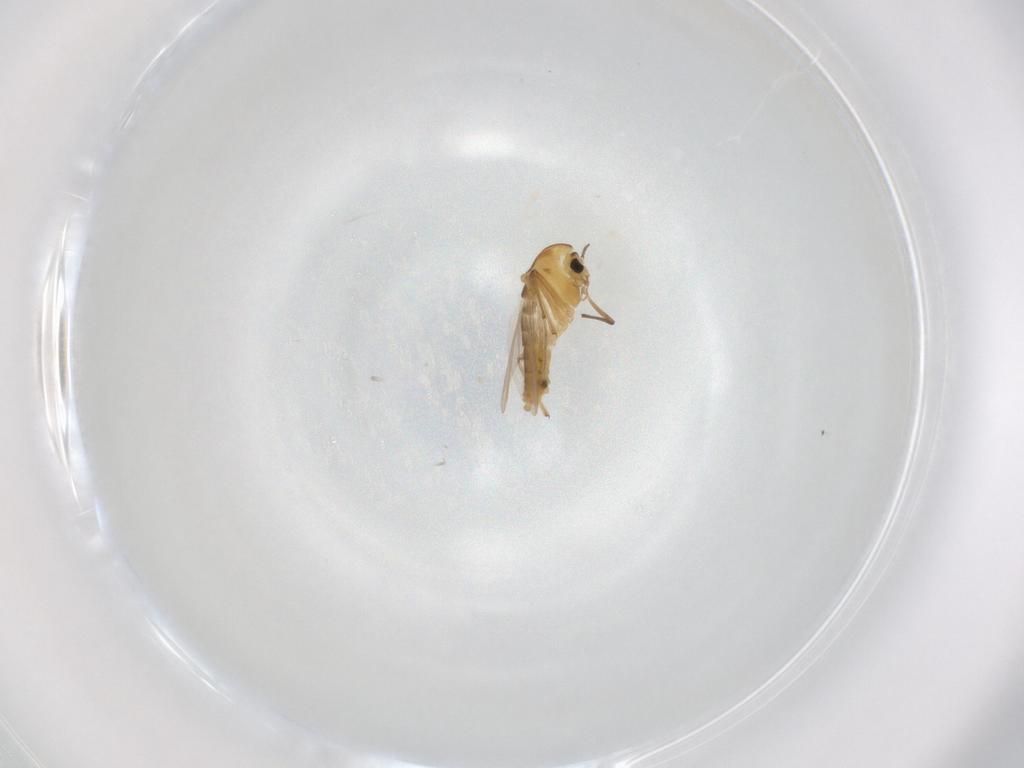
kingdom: Animalia
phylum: Arthropoda
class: Insecta
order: Diptera
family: Chironomidae
